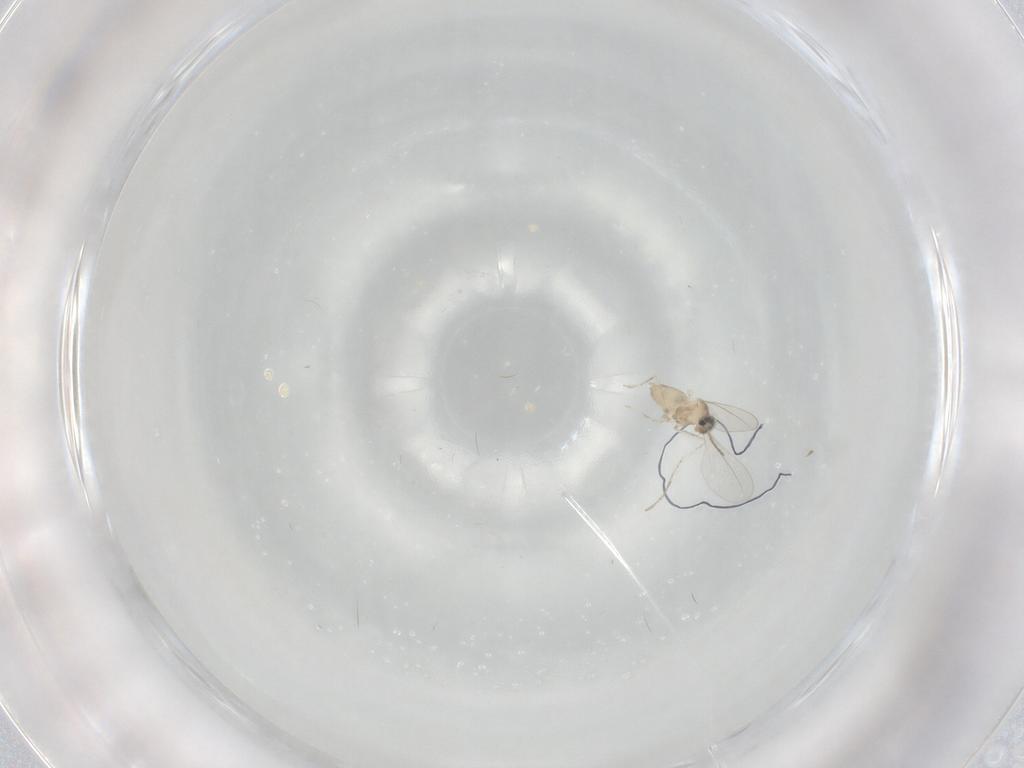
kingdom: Animalia
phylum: Arthropoda
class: Insecta
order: Diptera
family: Cecidomyiidae
